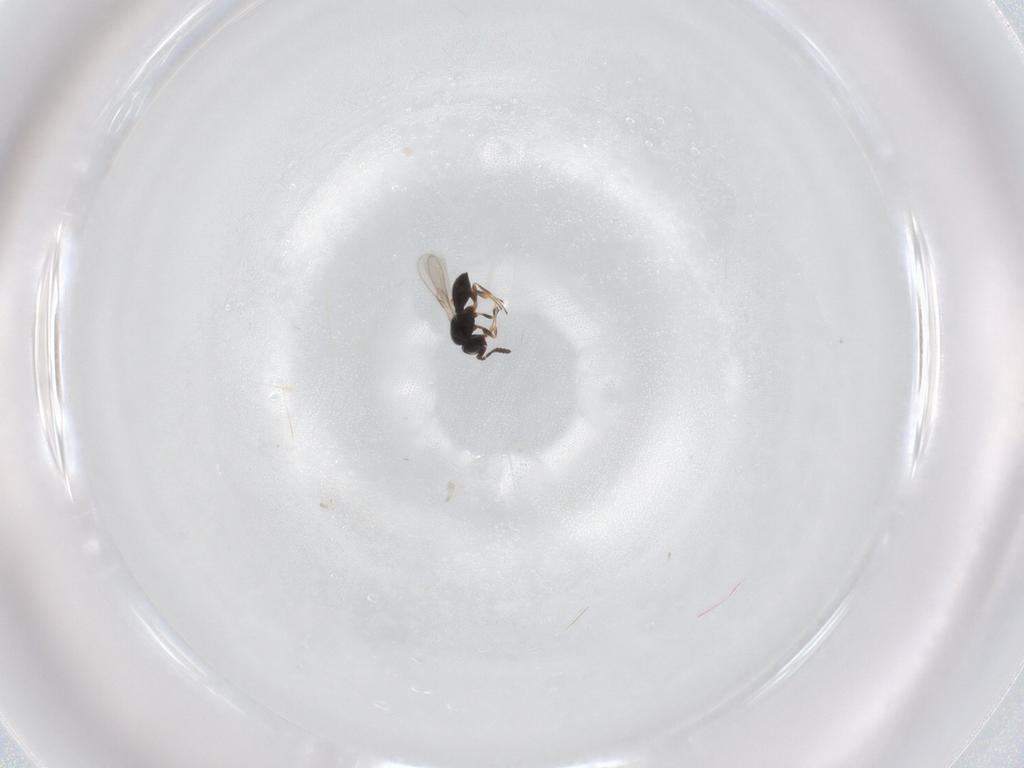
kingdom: Animalia
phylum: Arthropoda
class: Insecta
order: Hymenoptera
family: Scelionidae
